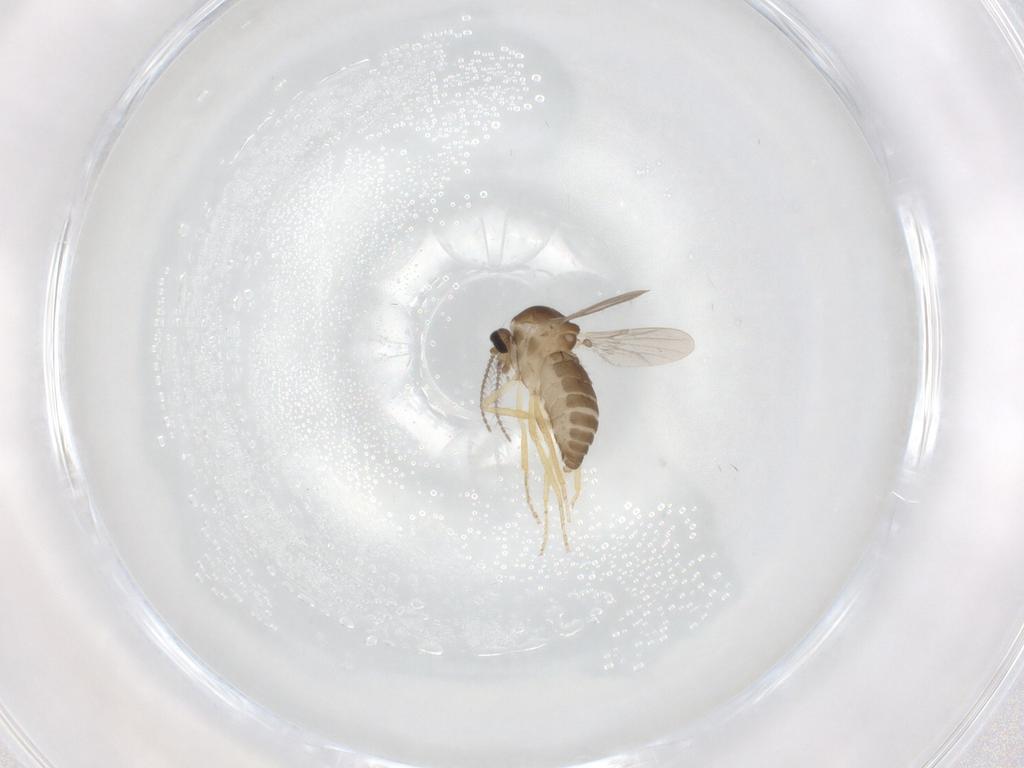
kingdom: Animalia
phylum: Arthropoda
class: Insecta
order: Diptera
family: Ceratopogonidae
